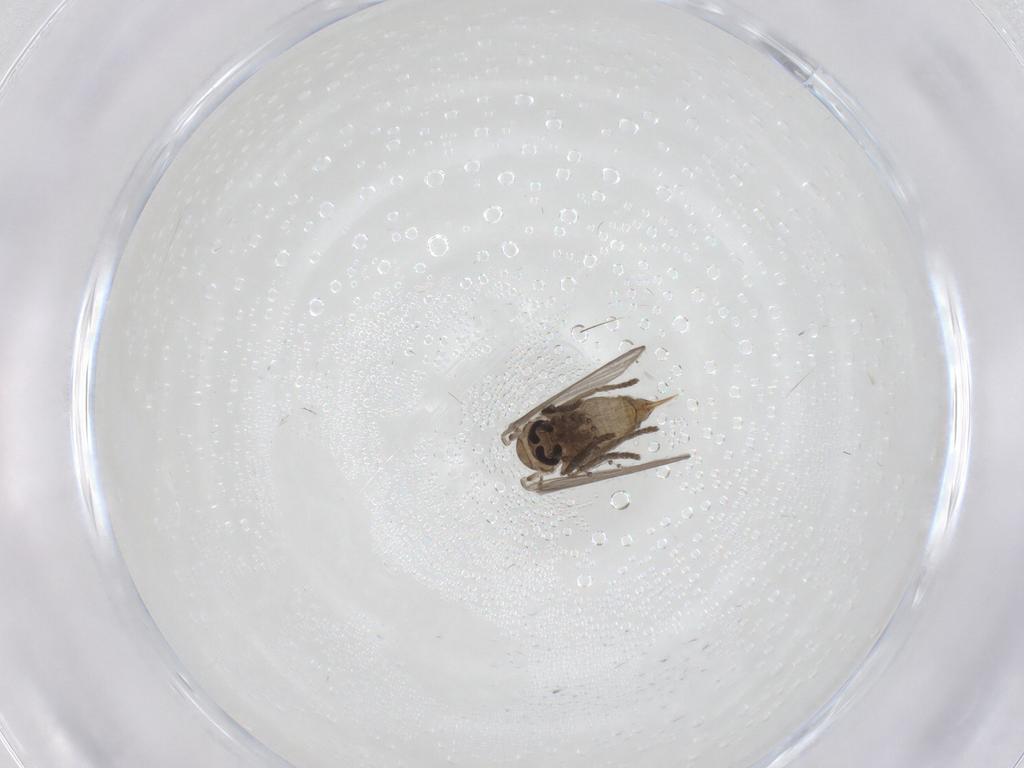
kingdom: Animalia
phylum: Arthropoda
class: Insecta
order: Diptera
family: Psychodidae
